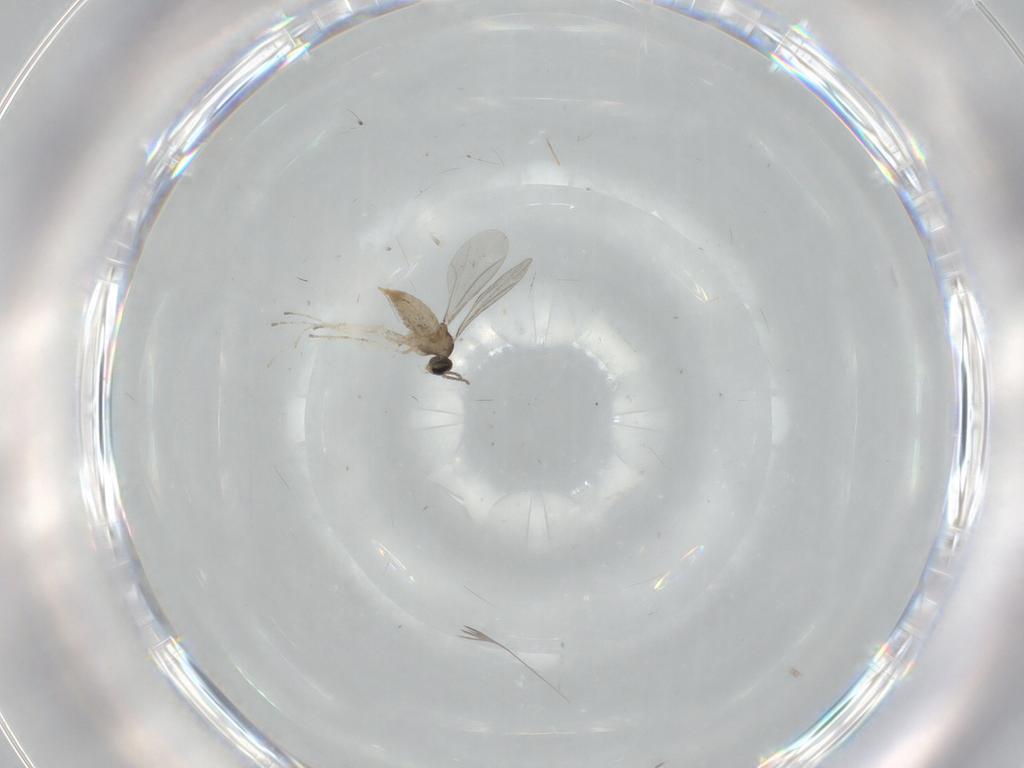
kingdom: Animalia
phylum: Arthropoda
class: Insecta
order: Diptera
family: Cecidomyiidae
